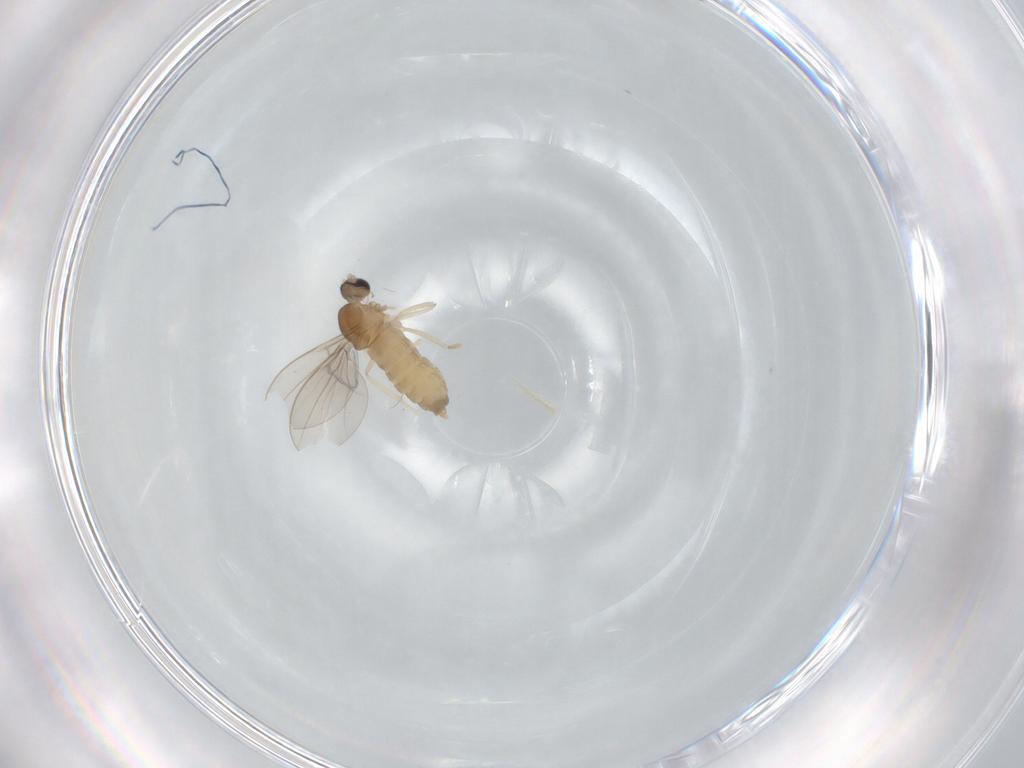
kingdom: Animalia
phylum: Arthropoda
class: Insecta
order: Diptera
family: Cecidomyiidae
